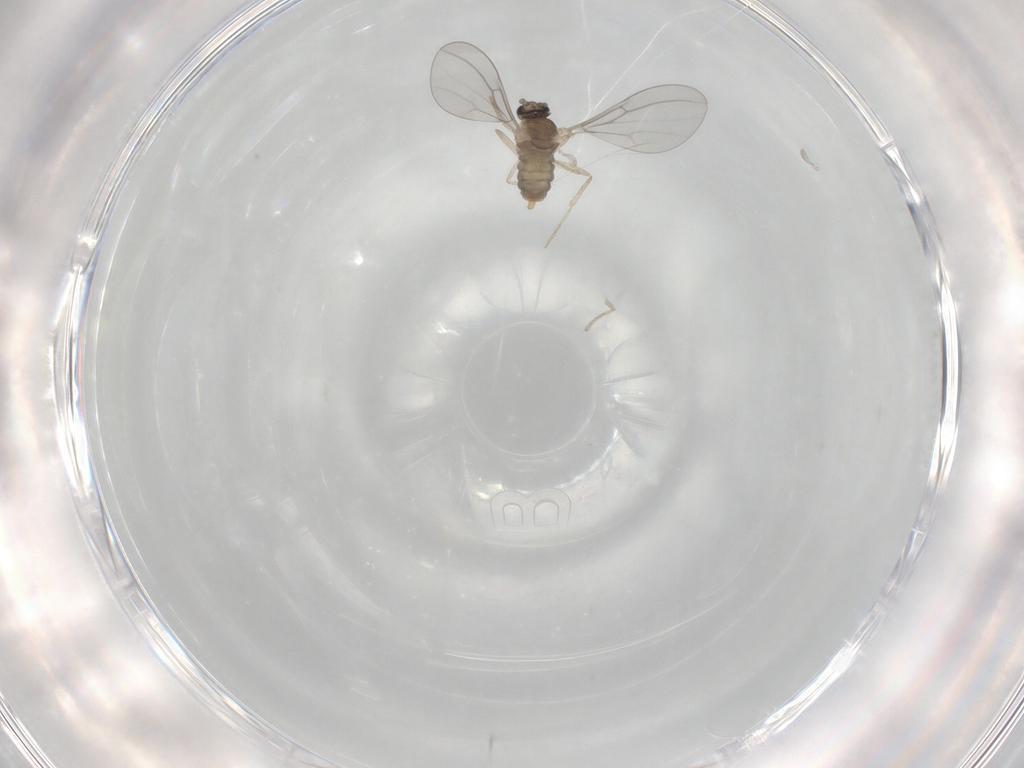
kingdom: Animalia
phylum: Arthropoda
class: Insecta
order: Diptera
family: Cecidomyiidae
